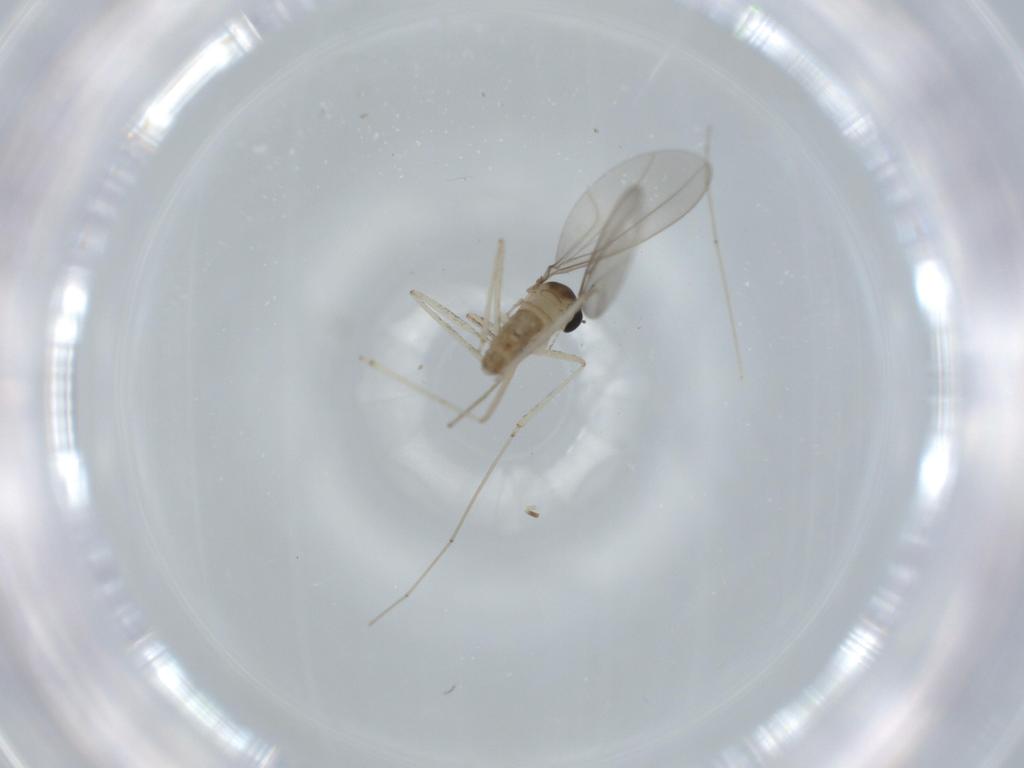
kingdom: Animalia
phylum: Arthropoda
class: Insecta
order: Diptera
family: Cecidomyiidae
